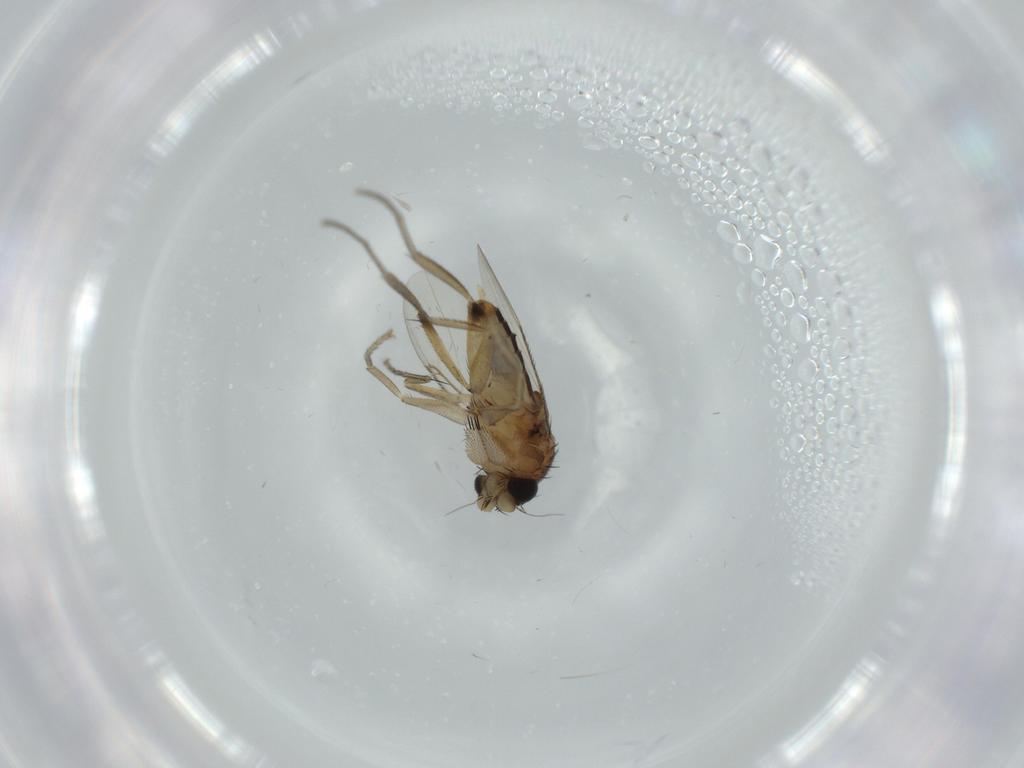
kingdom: Animalia
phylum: Arthropoda
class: Insecta
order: Diptera
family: Phoridae
